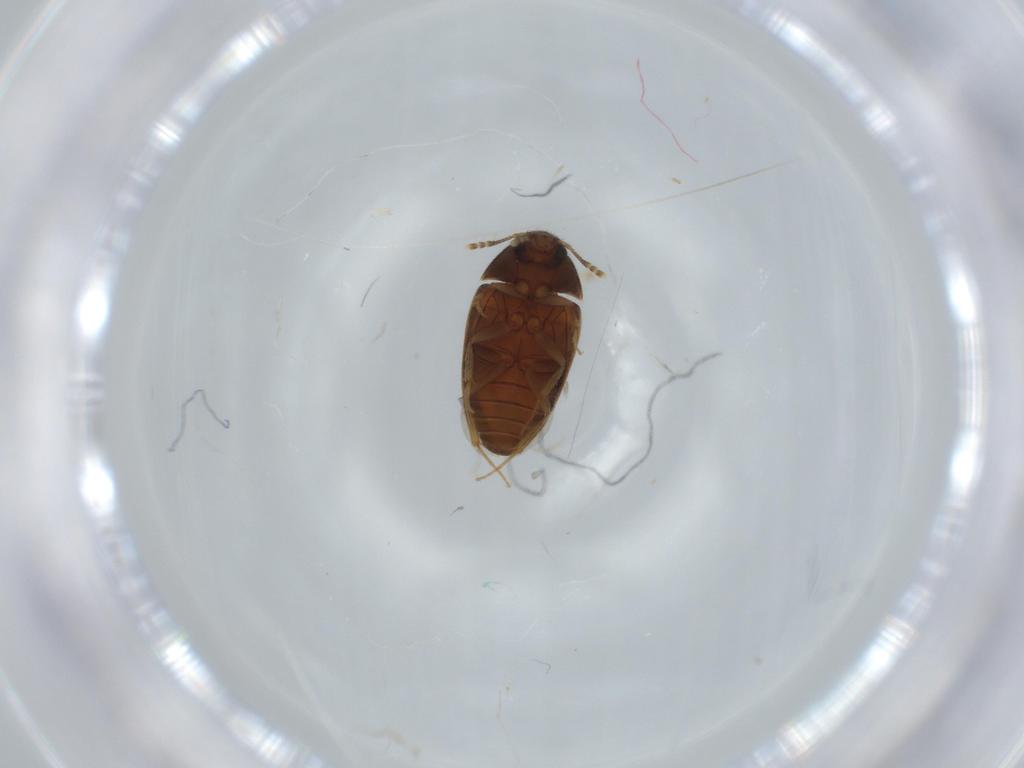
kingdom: Animalia
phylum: Arthropoda
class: Insecta
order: Coleoptera
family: Mycetophagidae
